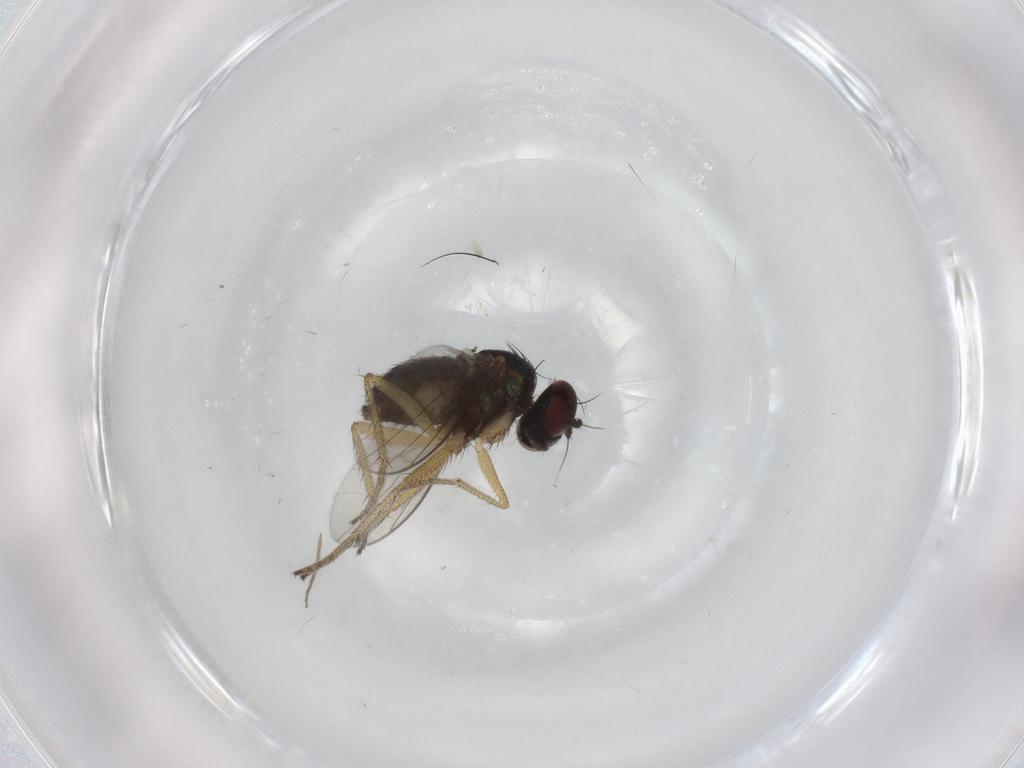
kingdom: Animalia
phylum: Arthropoda
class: Insecta
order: Diptera
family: Chironomidae
